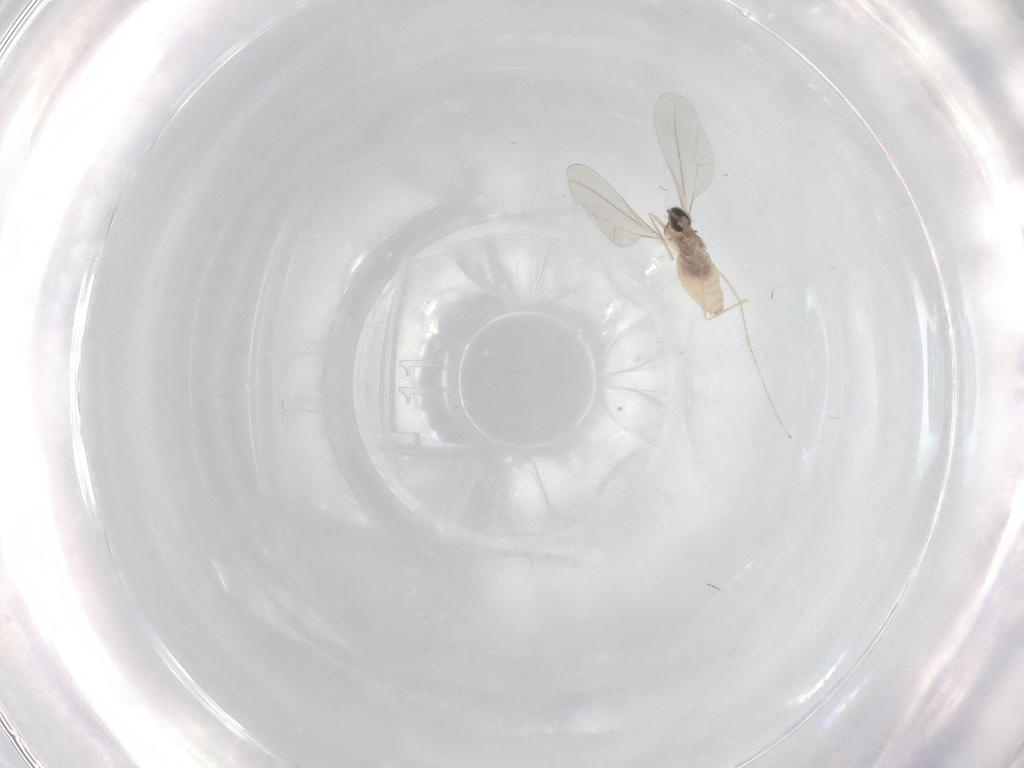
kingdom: Animalia
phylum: Arthropoda
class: Insecta
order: Diptera
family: Cecidomyiidae
